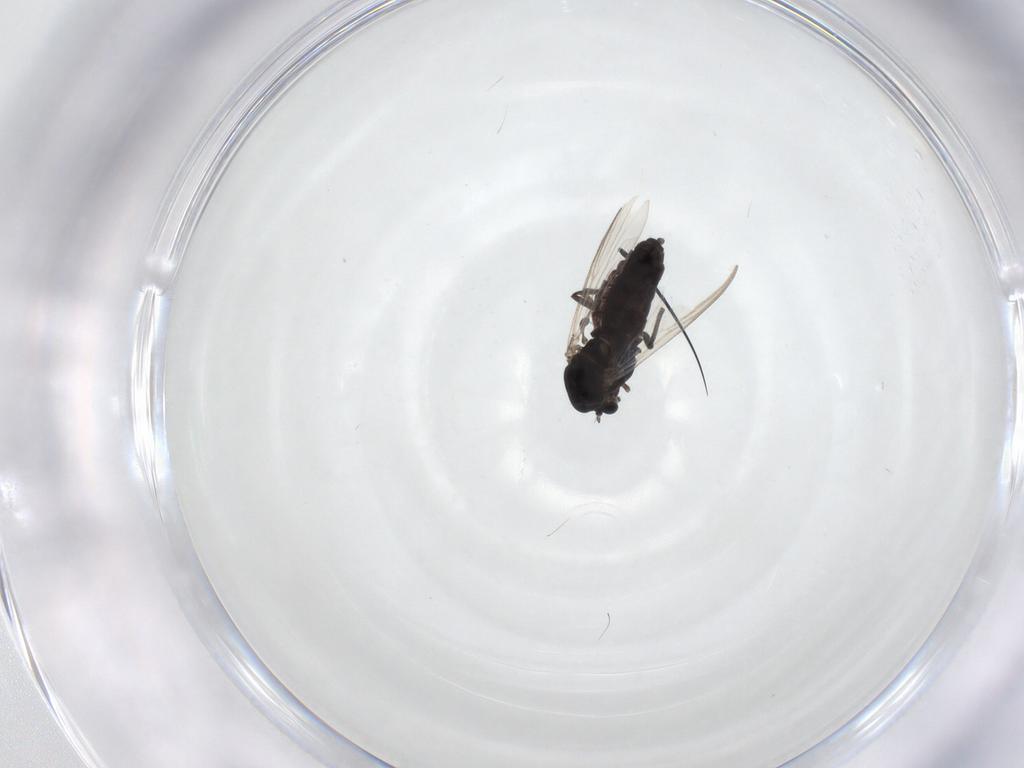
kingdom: Animalia
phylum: Arthropoda
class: Insecta
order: Diptera
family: Chironomidae
